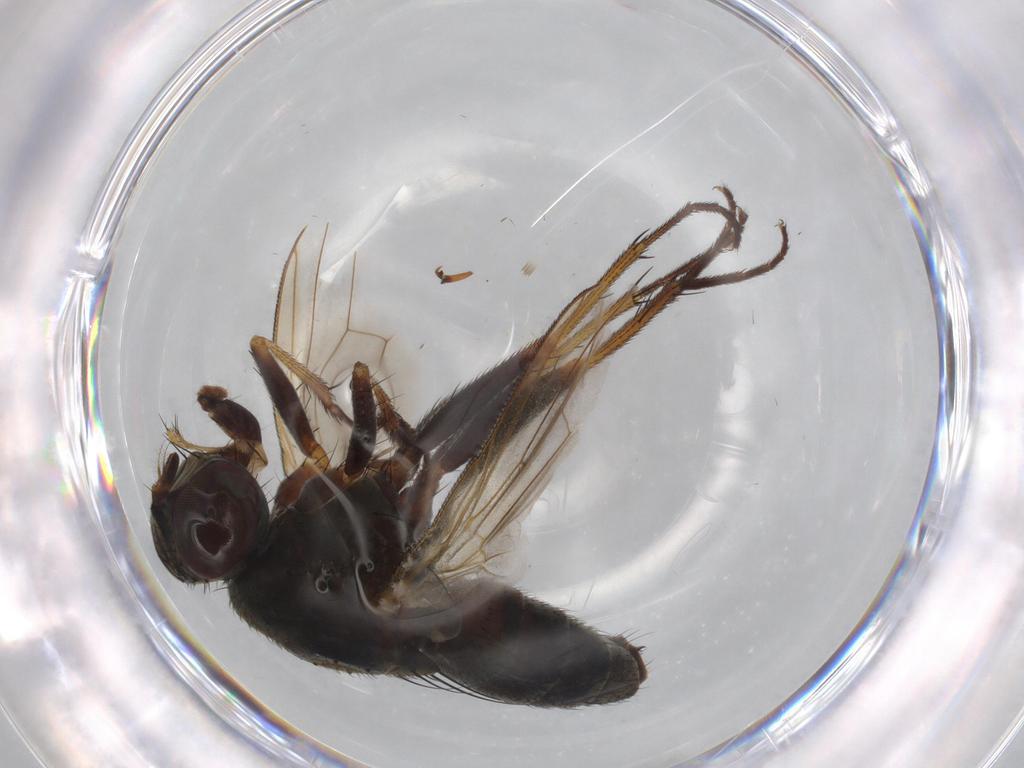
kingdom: Animalia
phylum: Arthropoda
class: Insecta
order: Diptera
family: Muscidae
